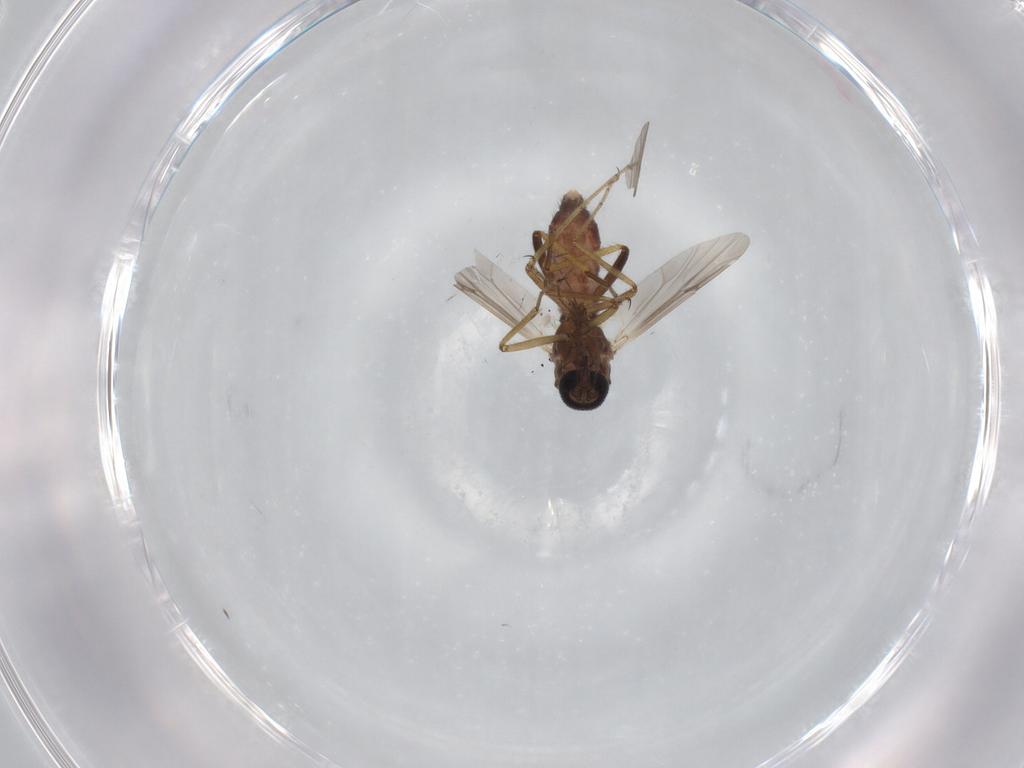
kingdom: Animalia
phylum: Arthropoda
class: Insecta
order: Diptera
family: Ceratopogonidae
